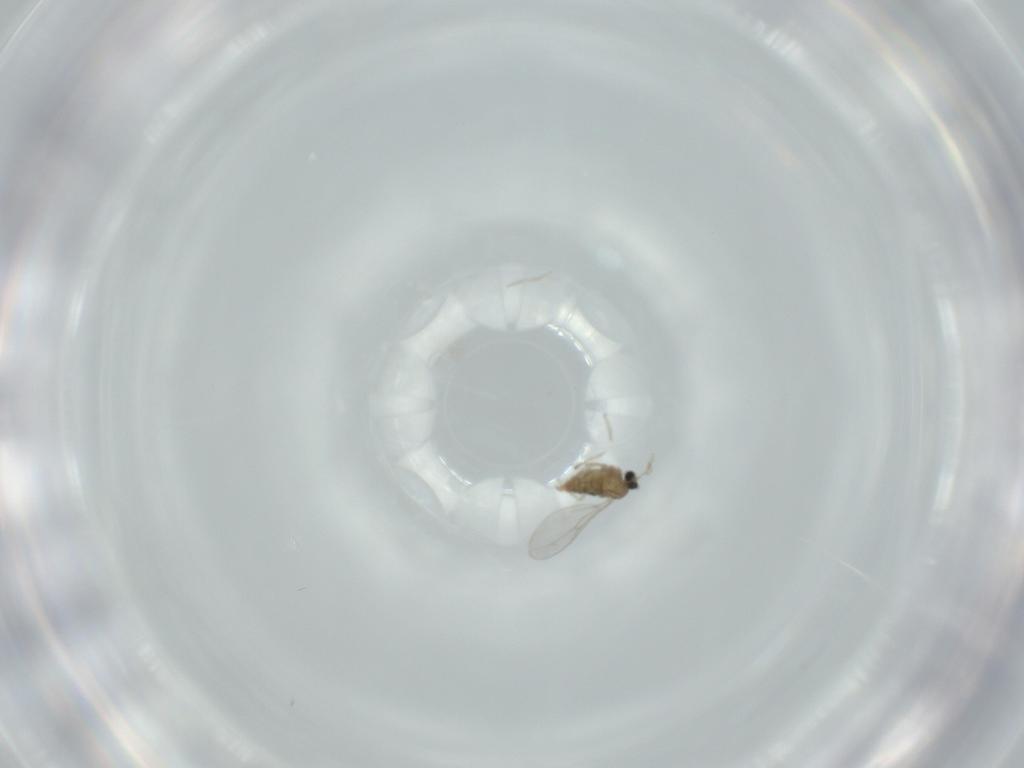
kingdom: Animalia
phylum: Arthropoda
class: Insecta
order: Diptera
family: Cecidomyiidae
